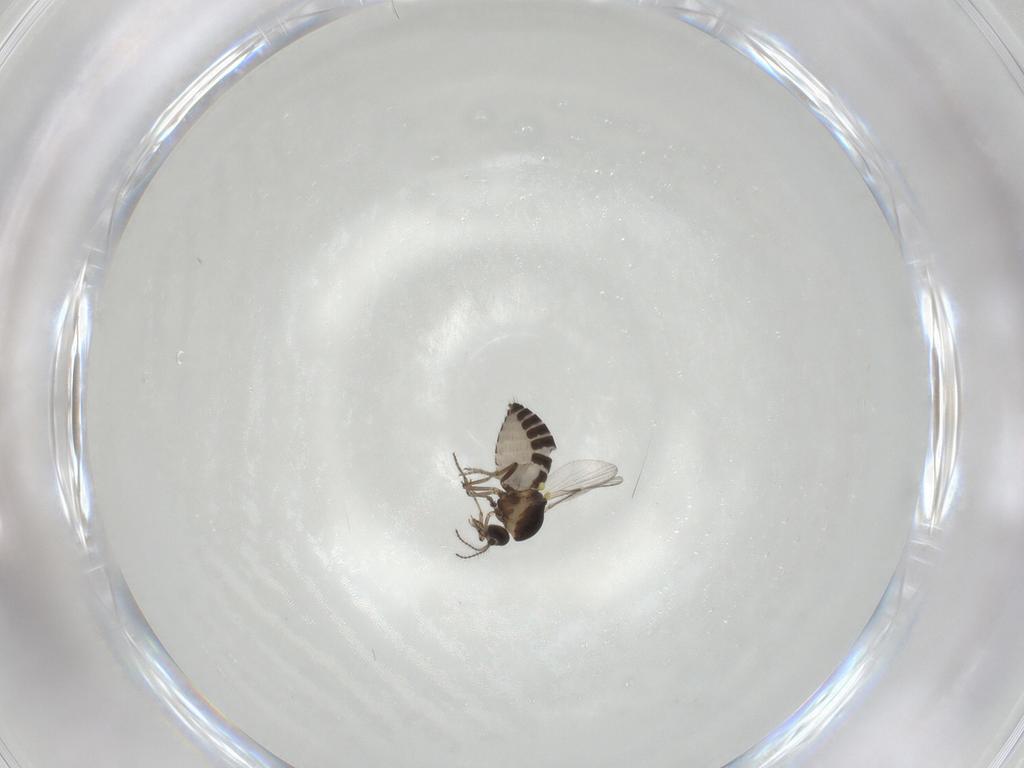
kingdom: Animalia
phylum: Arthropoda
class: Insecta
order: Diptera
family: Ceratopogonidae
